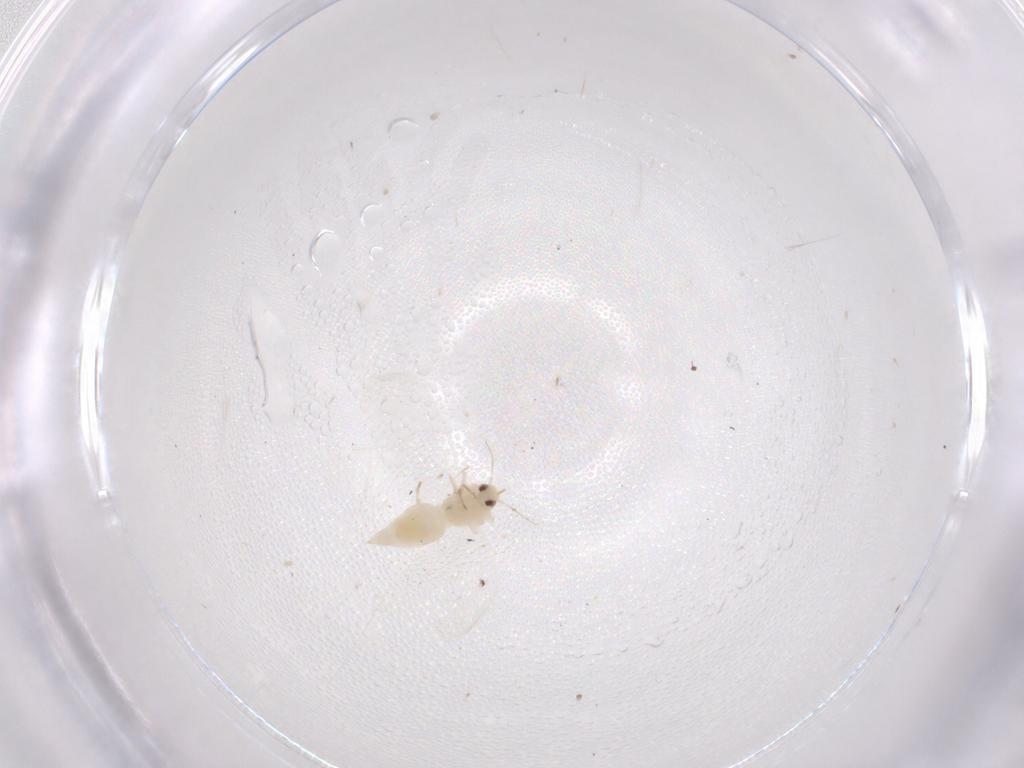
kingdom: Animalia
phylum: Arthropoda
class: Insecta
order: Hemiptera
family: Aleyrodidae
